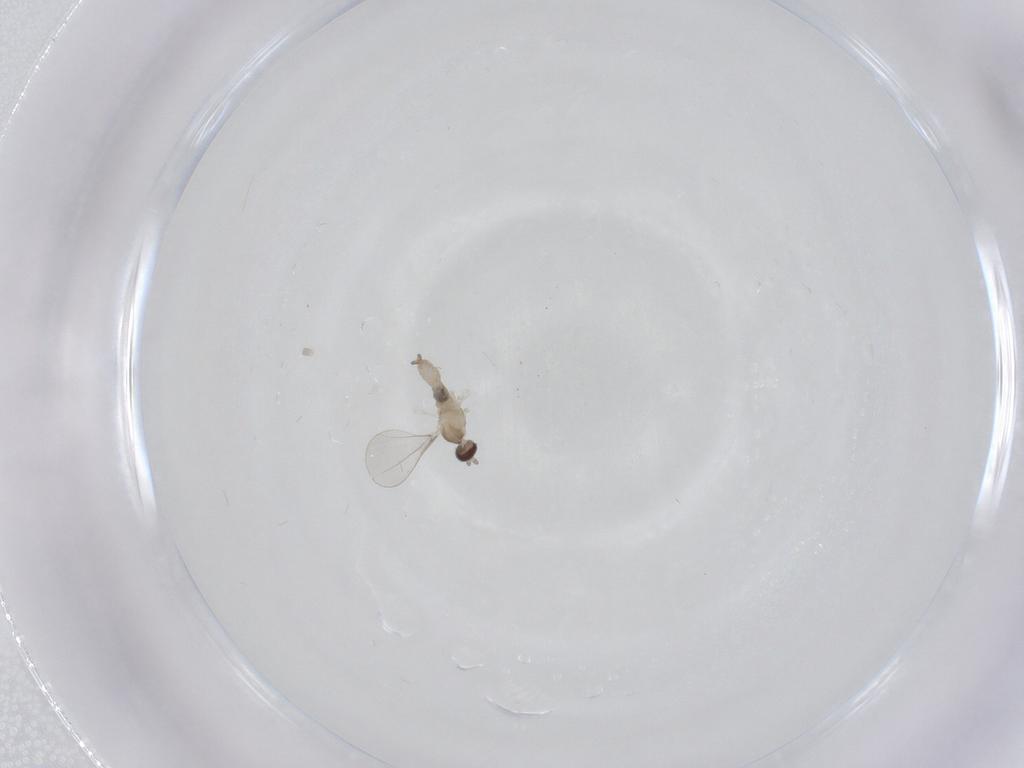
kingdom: Animalia
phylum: Arthropoda
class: Insecta
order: Diptera
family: Cecidomyiidae
